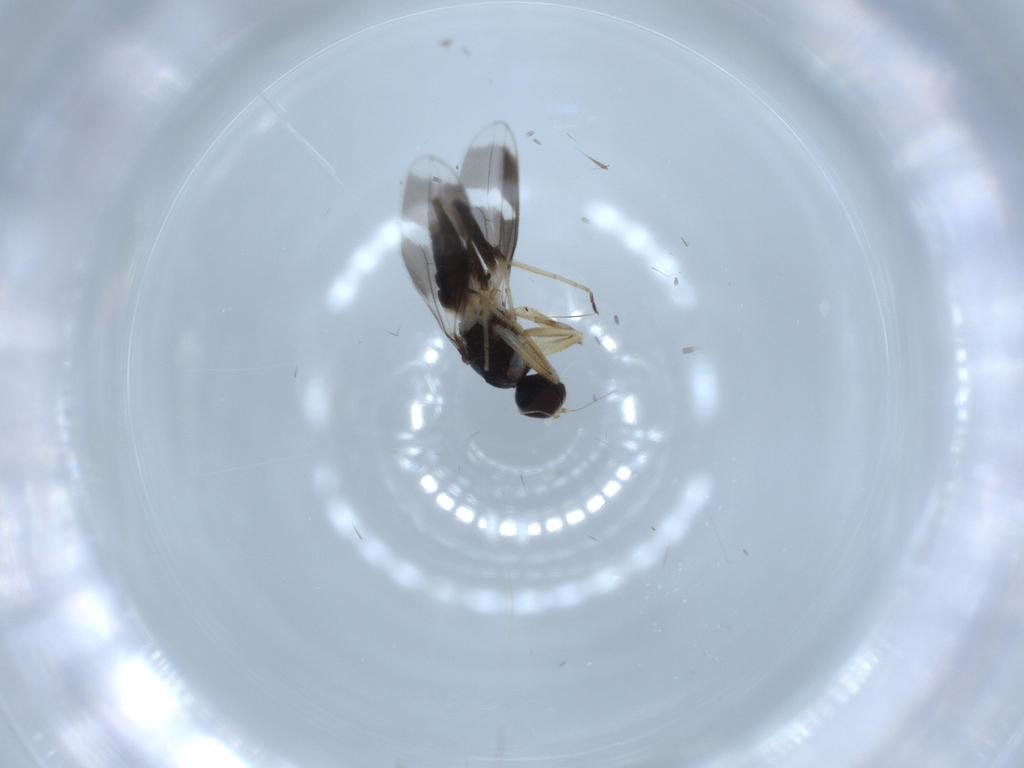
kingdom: Animalia
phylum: Arthropoda
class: Insecta
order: Diptera
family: Hybotidae
